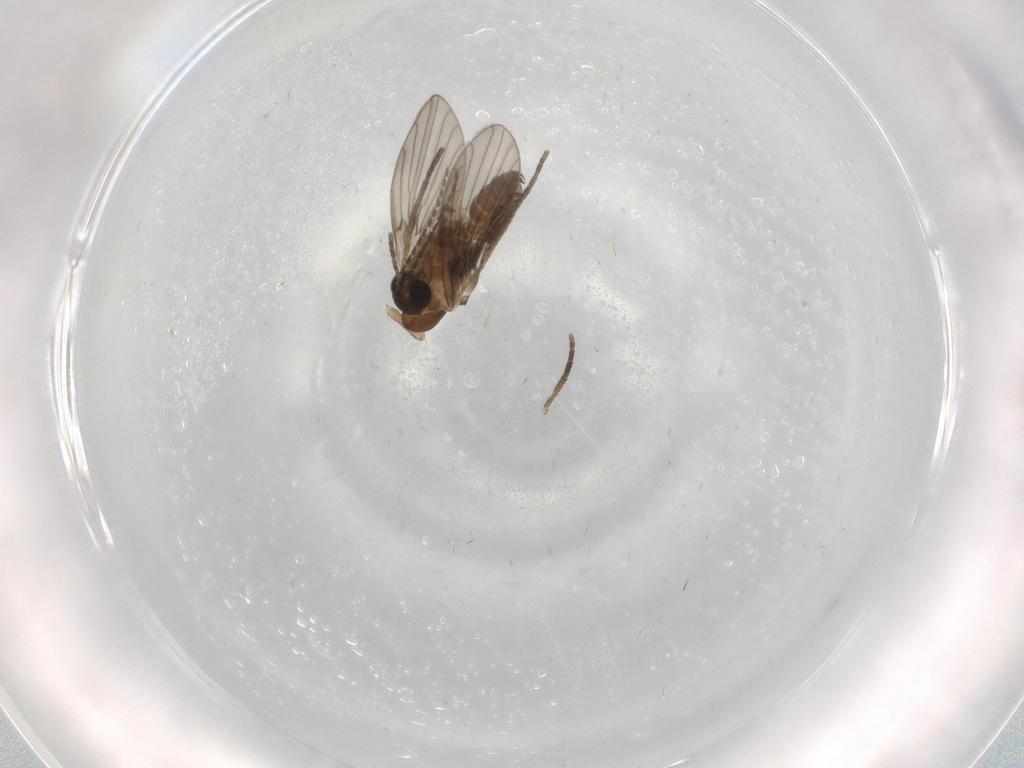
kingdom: Animalia
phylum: Arthropoda
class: Insecta
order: Diptera
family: Psychodidae
